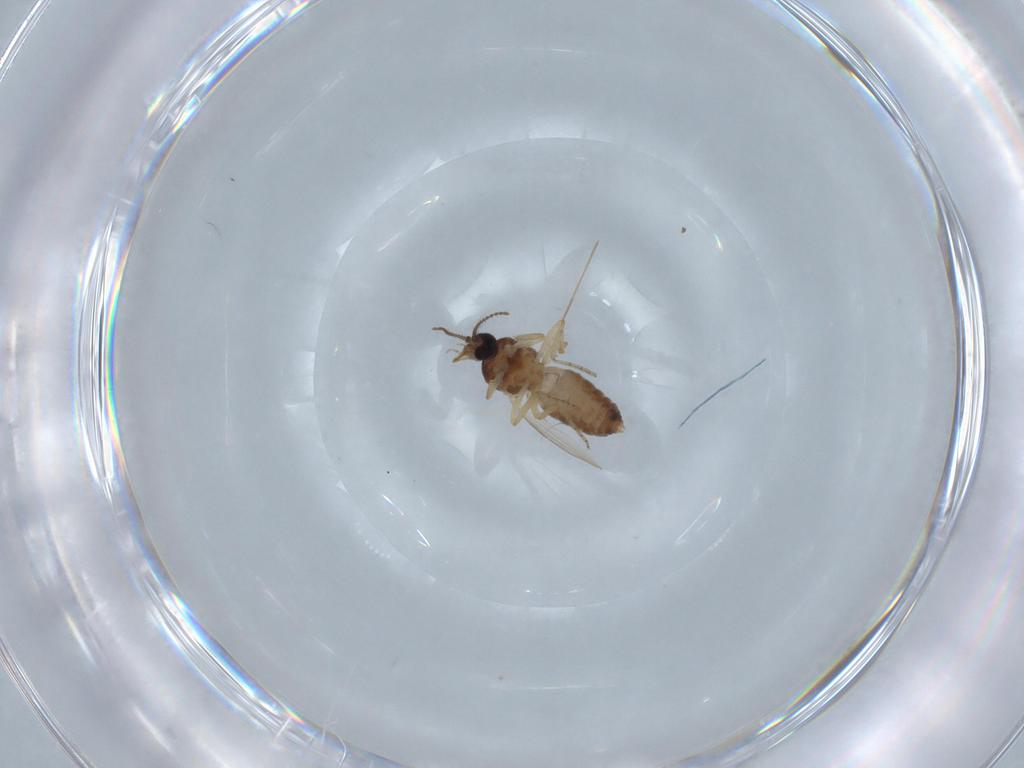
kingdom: Animalia
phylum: Arthropoda
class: Insecta
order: Diptera
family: Ceratopogonidae
